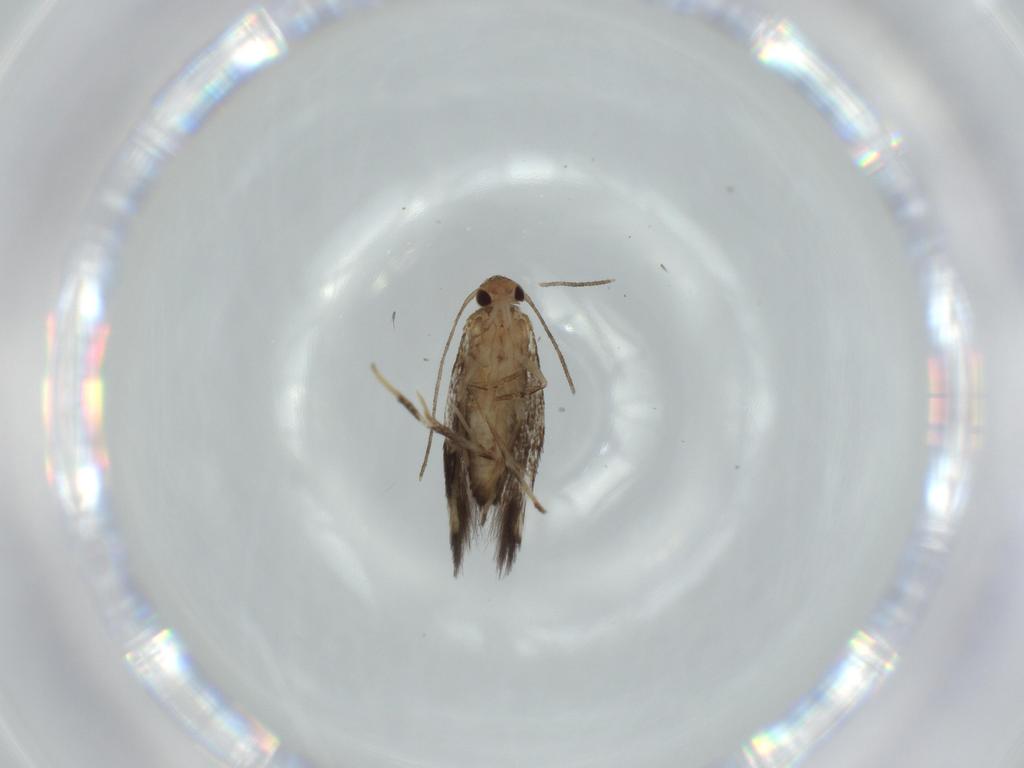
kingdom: Animalia
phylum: Arthropoda
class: Insecta
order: Lepidoptera
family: Cosmopterigidae
